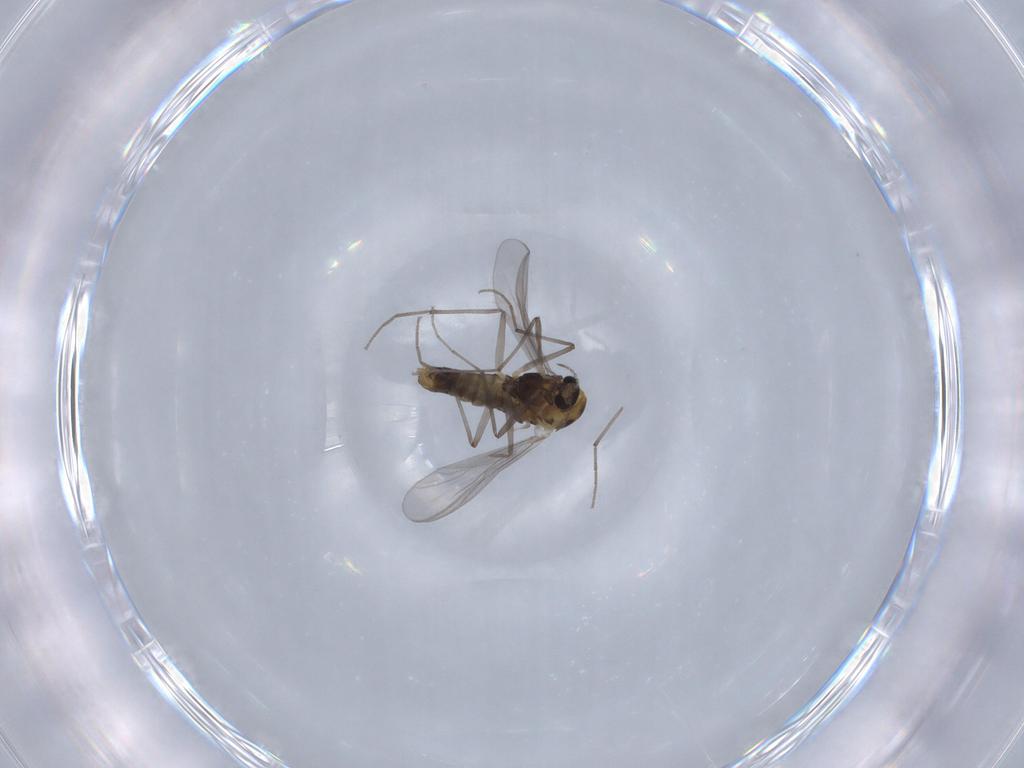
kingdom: Animalia
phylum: Arthropoda
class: Insecta
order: Diptera
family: Chironomidae
